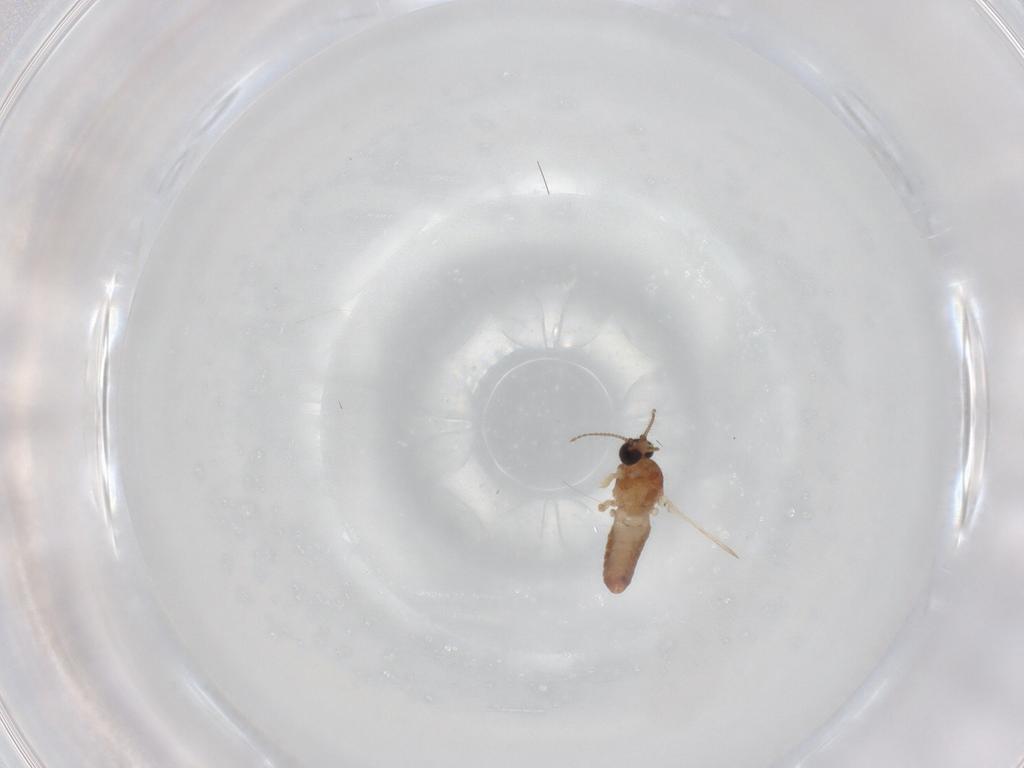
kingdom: Animalia
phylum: Arthropoda
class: Insecta
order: Diptera
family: Ceratopogonidae
